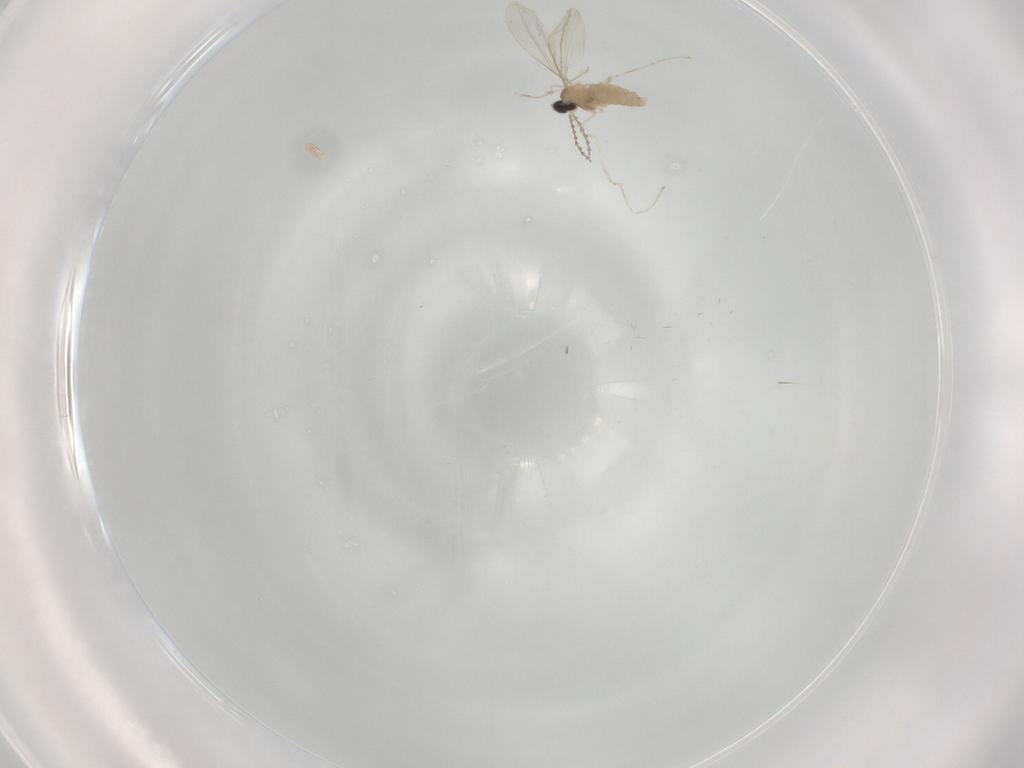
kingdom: Animalia
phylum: Arthropoda
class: Insecta
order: Diptera
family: Cecidomyiidae
